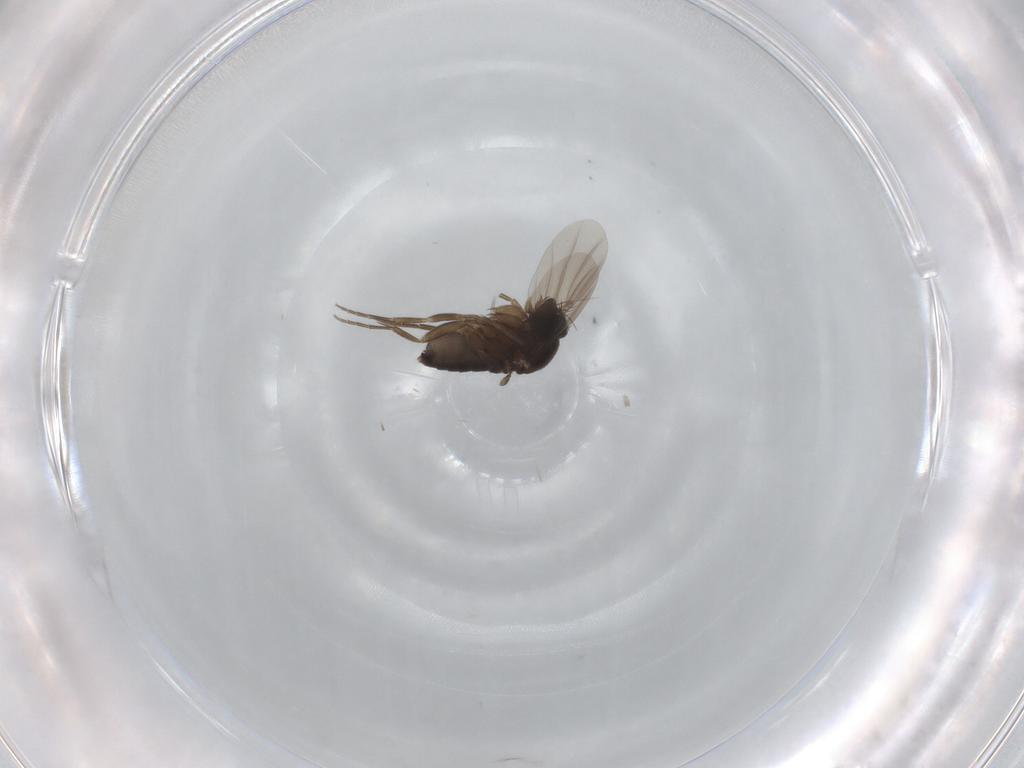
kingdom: Animalia
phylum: Arthropoda
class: Insecta
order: Diptera
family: Phoridae
